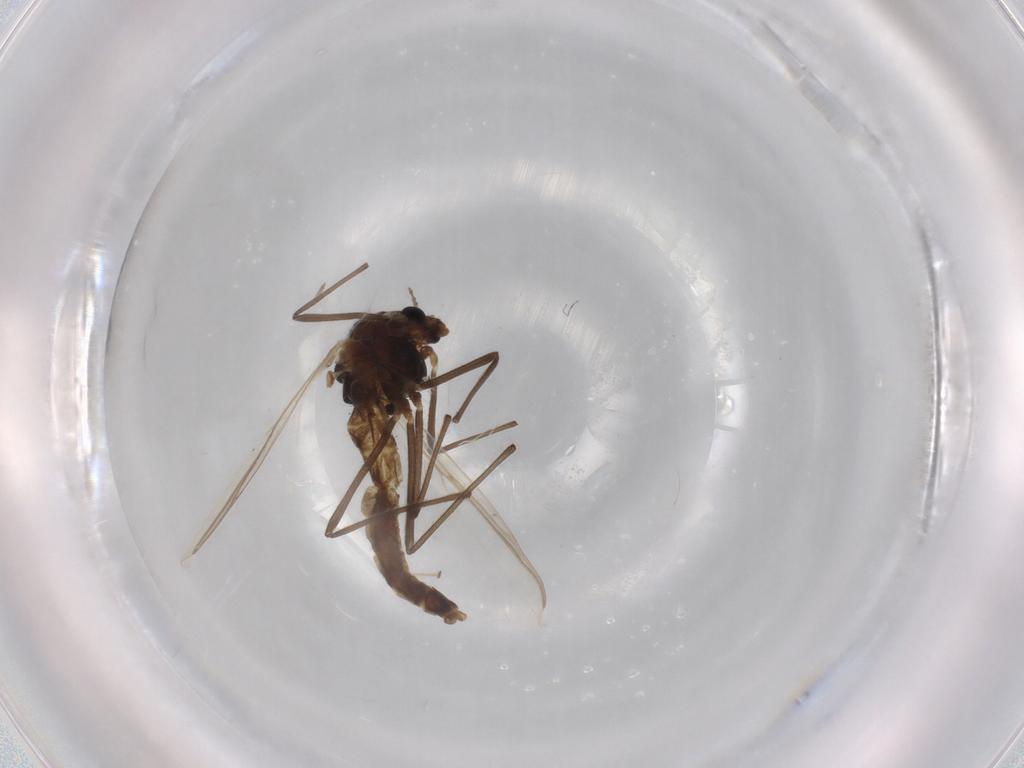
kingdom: Animalia
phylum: Arthropoda
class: Insecta
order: Diptera
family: Chironomidae
